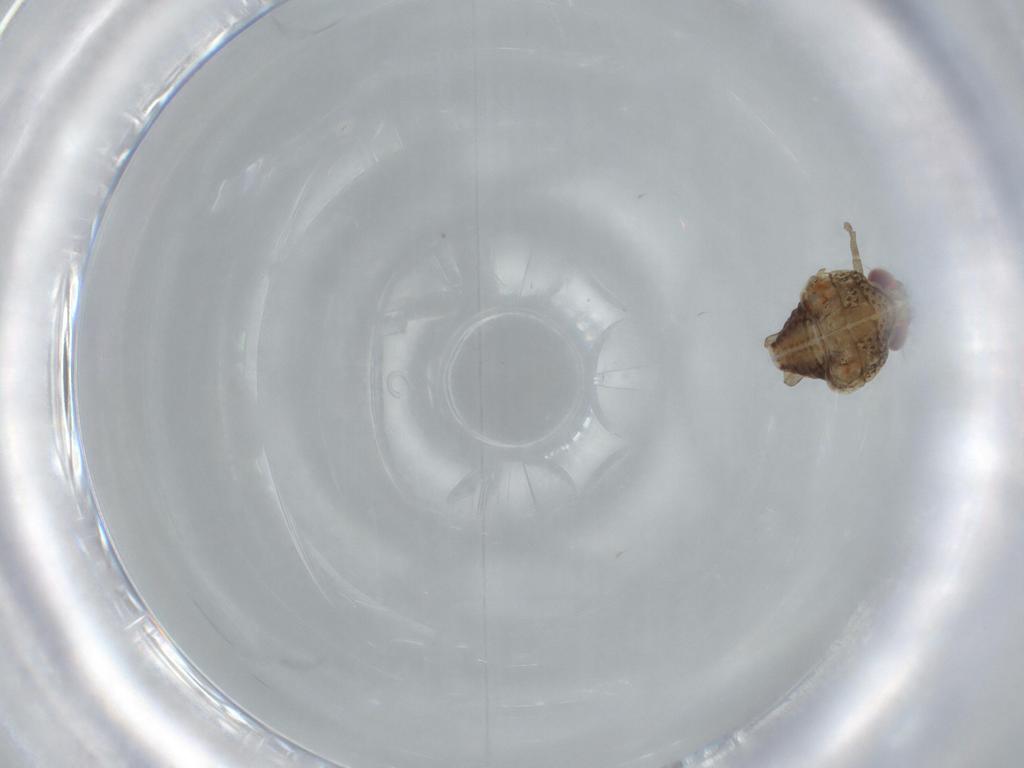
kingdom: Animalia
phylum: Arthropoda
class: Insecta
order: Hemiptera
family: Issidae
